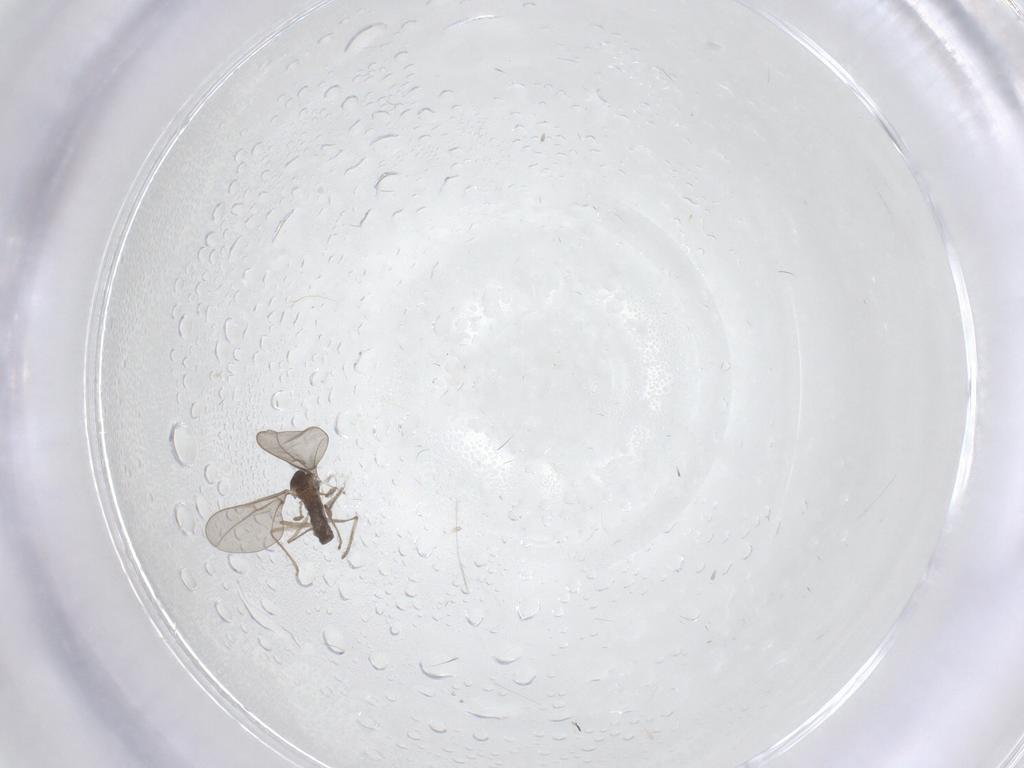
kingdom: Animalia
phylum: Arthropoda
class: Insecta
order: Diptera
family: Cecidomyiidae
